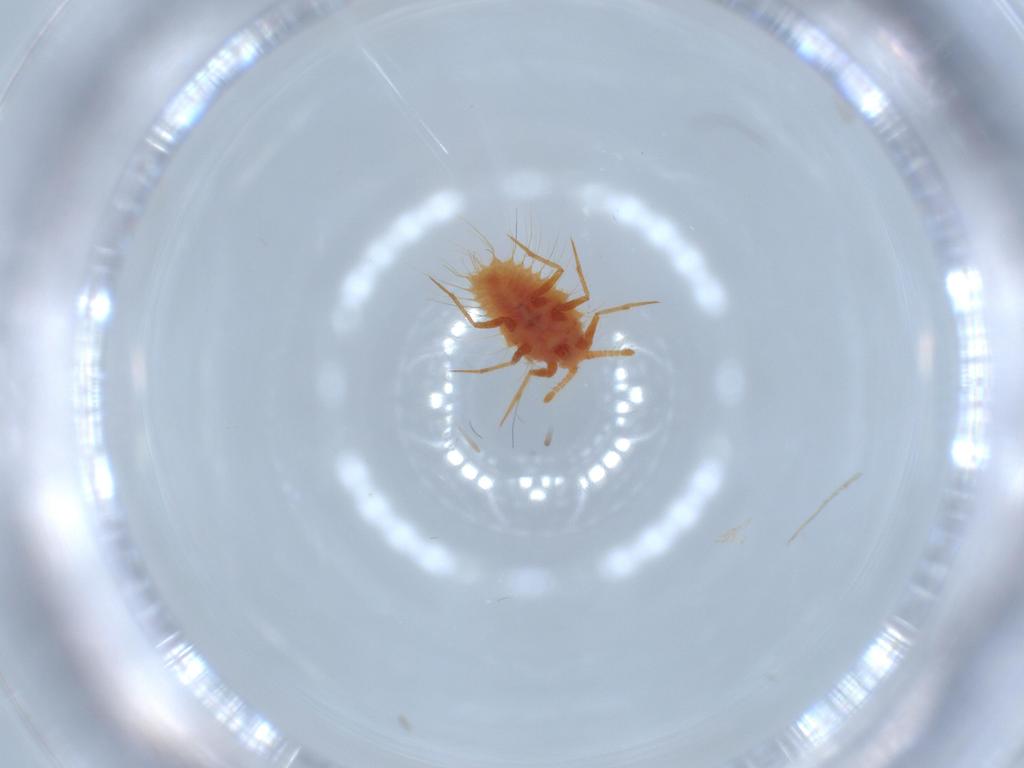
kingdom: Animalia
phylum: Arthropoda
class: Insecta
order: Hemiptera
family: Monophlebidae
